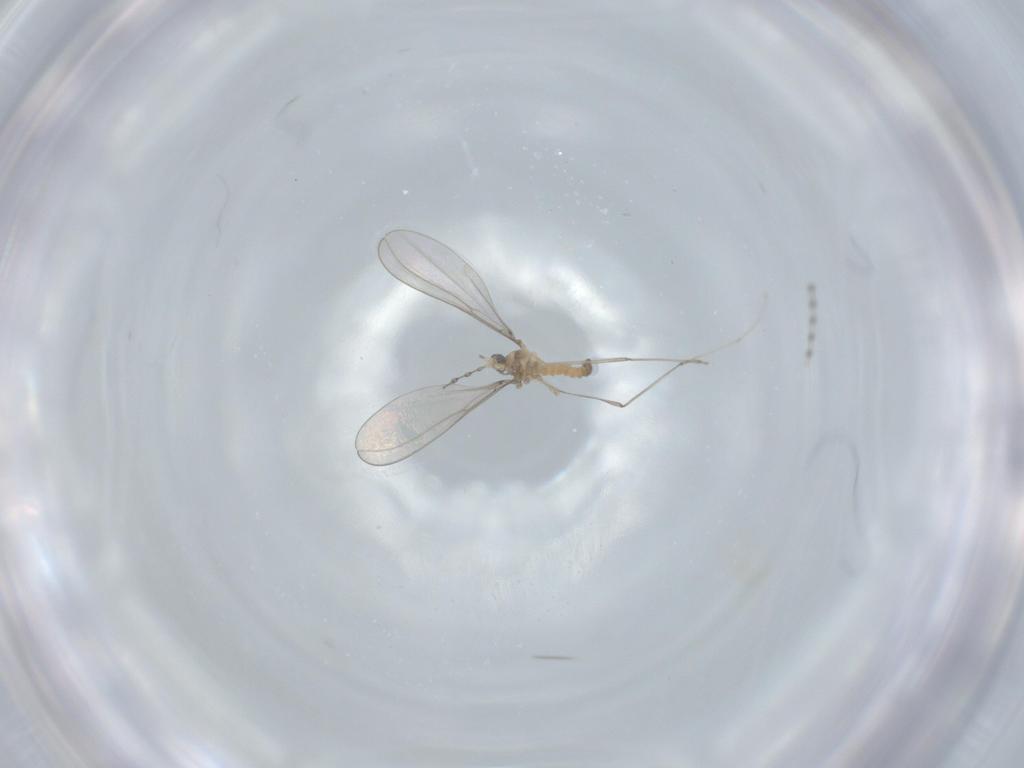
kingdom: Animalia
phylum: Arthropoda
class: Insecta
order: Diptera
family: Cecidomyiidae
